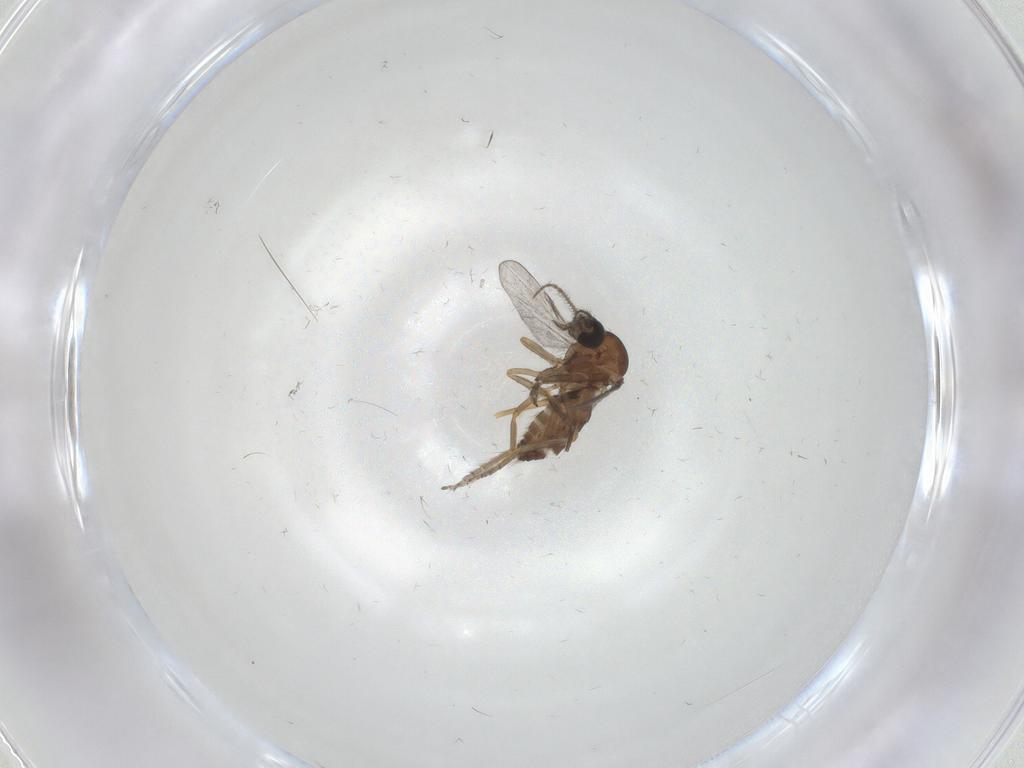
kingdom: Animalia
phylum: Arthropoda
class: Insecta
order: Diptera
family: Ceratopogonidae
